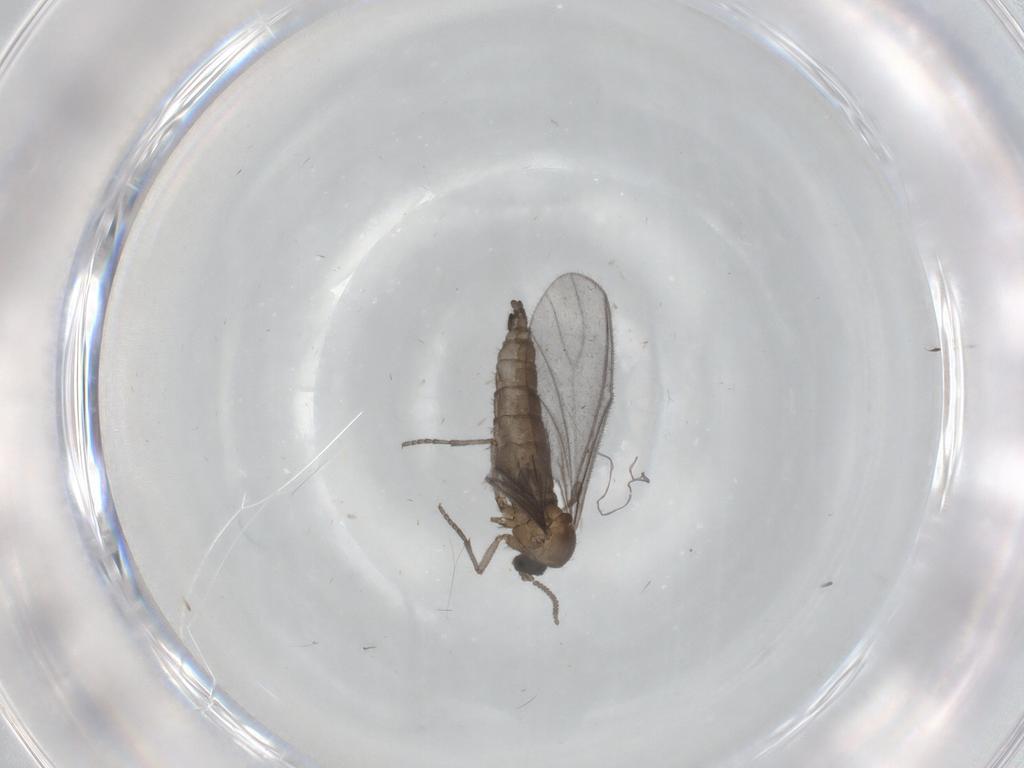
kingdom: Animalia
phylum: Arthropoda
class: Insecta
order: Diptera
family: Sciaridae
